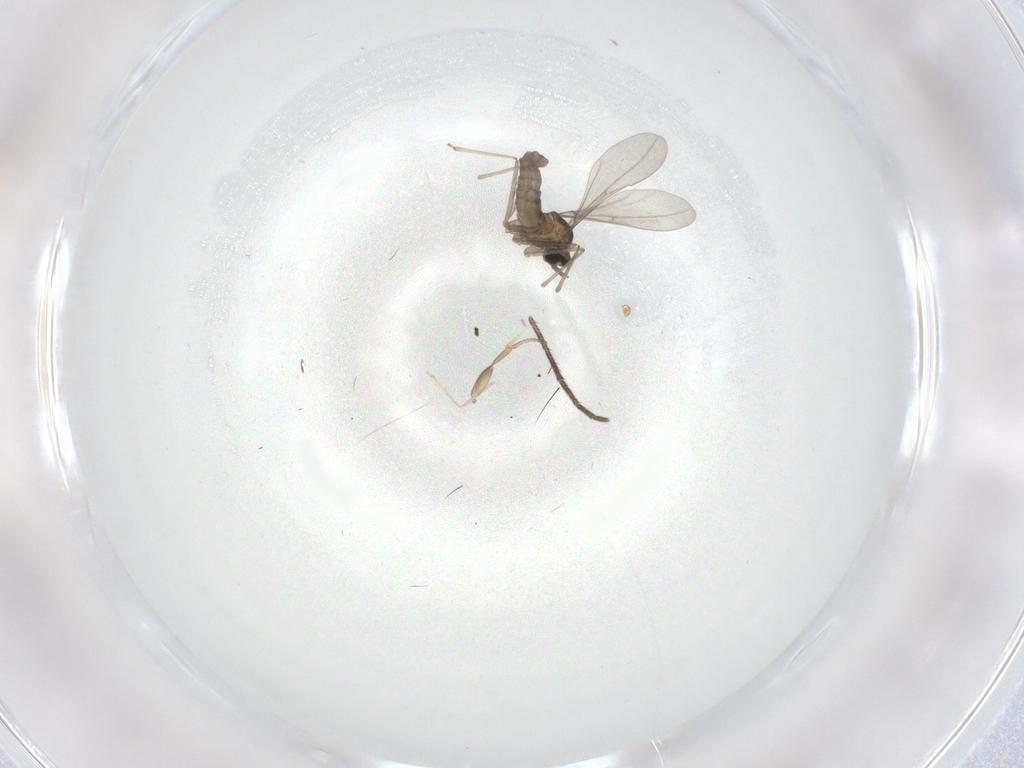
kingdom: Animalia
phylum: Arthropoda
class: Insecta
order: Diptera
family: Sciaridae
